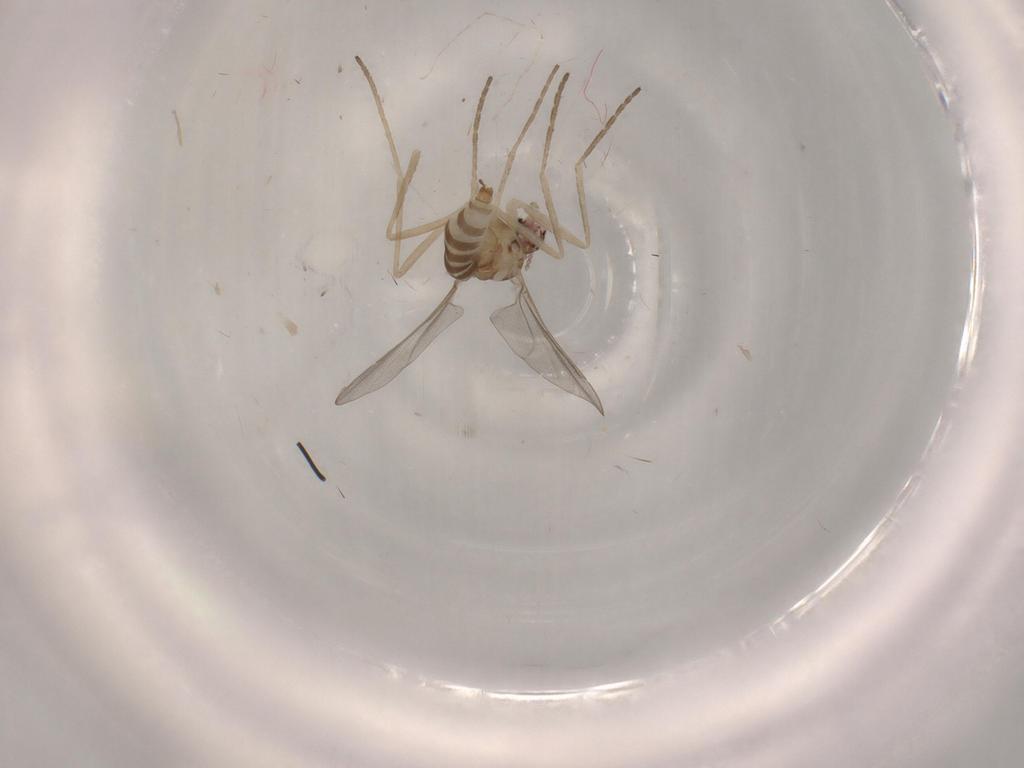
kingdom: Animalia
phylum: Arthropoda
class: Insecta
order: Diptera
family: Cecidomyiidae
